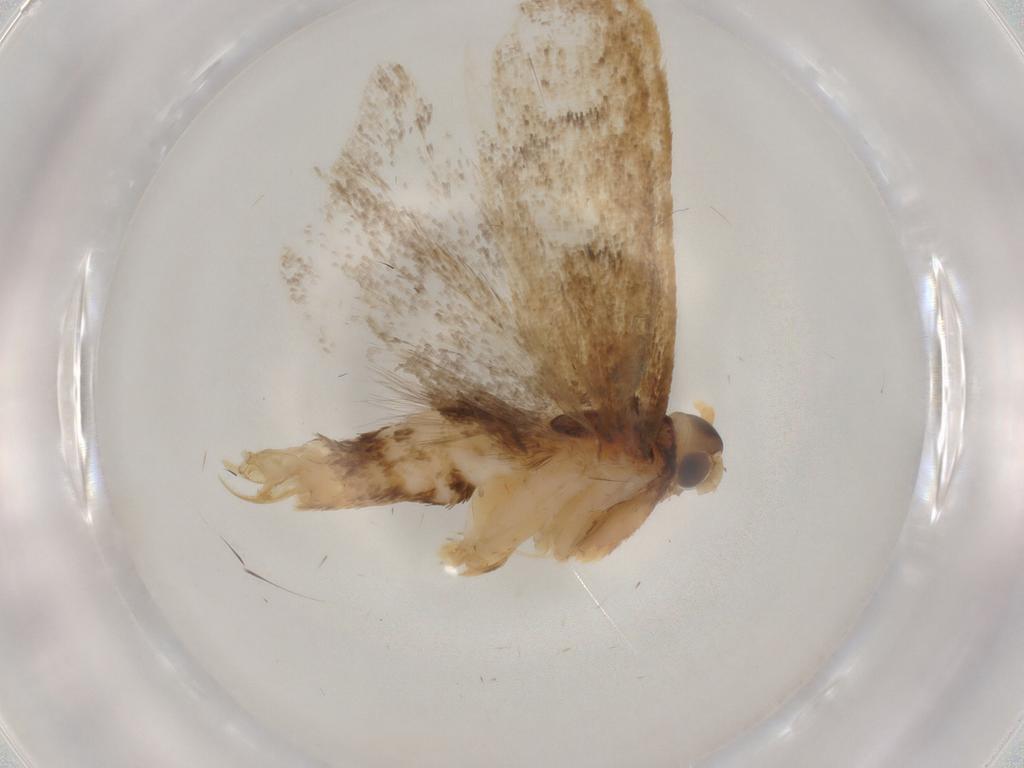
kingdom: Animalia
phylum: Arthropoda
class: Insecta
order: Lepidoptera
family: Lecithoceridae
